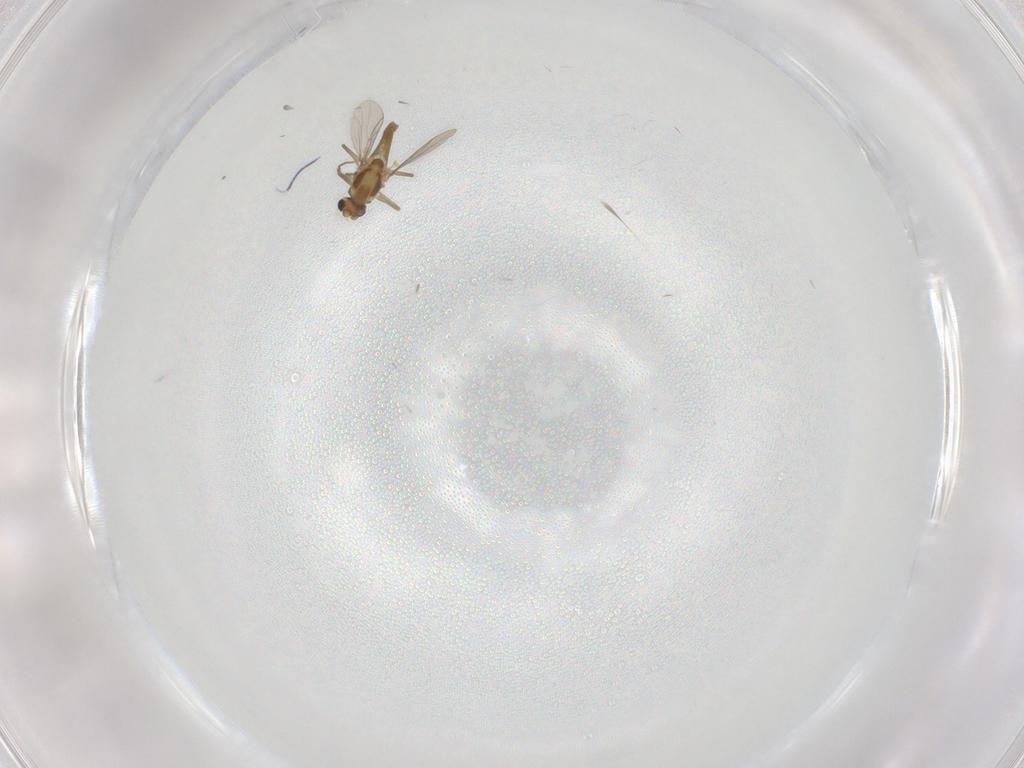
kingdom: Animalia
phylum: Arthropoda
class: Insecta
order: Diptera
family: Chironomidae
